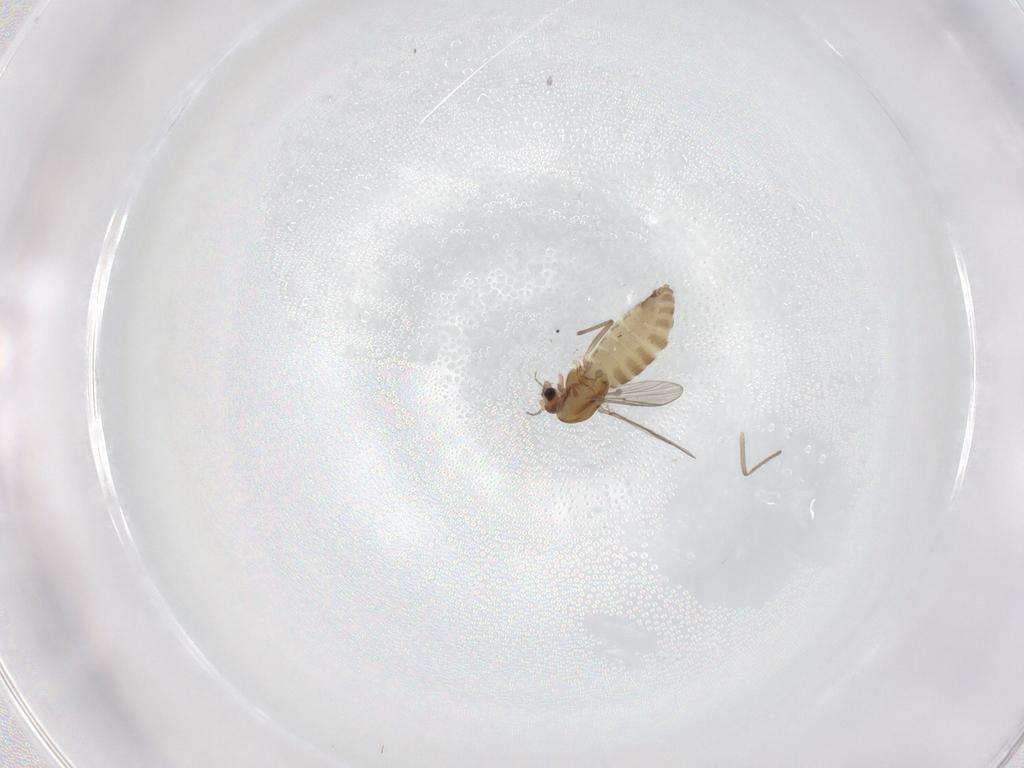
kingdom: Animalia
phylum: Arthropoda
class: Insecta
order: Diptera
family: Chironomidae
